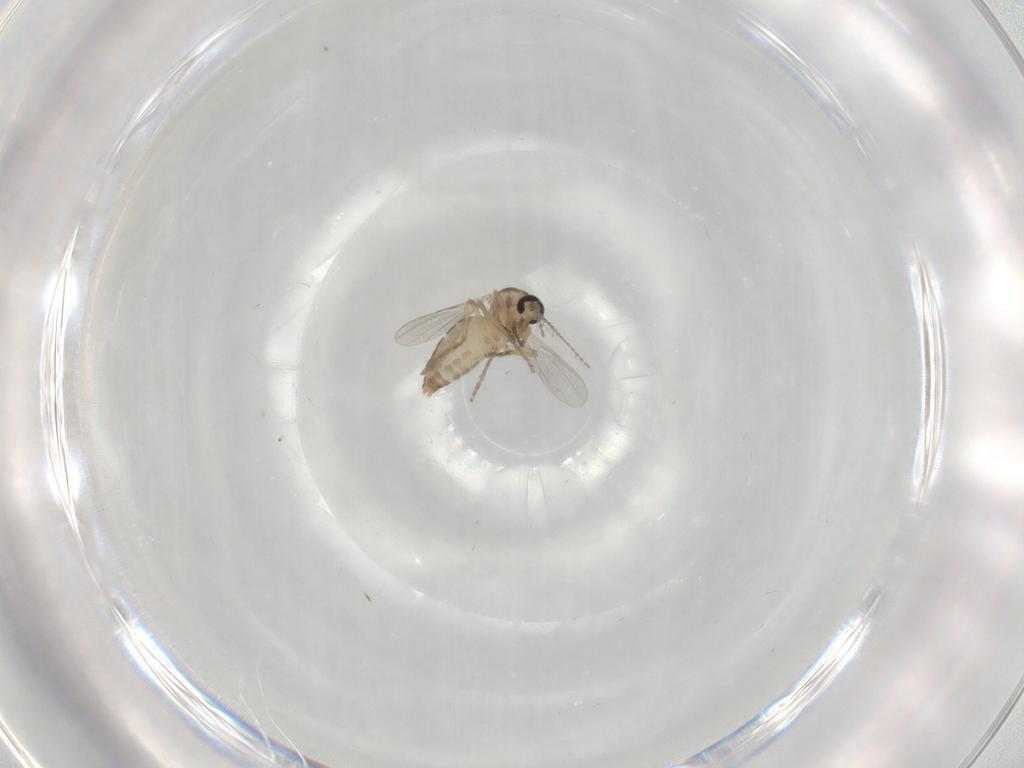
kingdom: Animalia
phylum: Arthropoda
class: Insecta
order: Diptera
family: Ceratopogonidae
